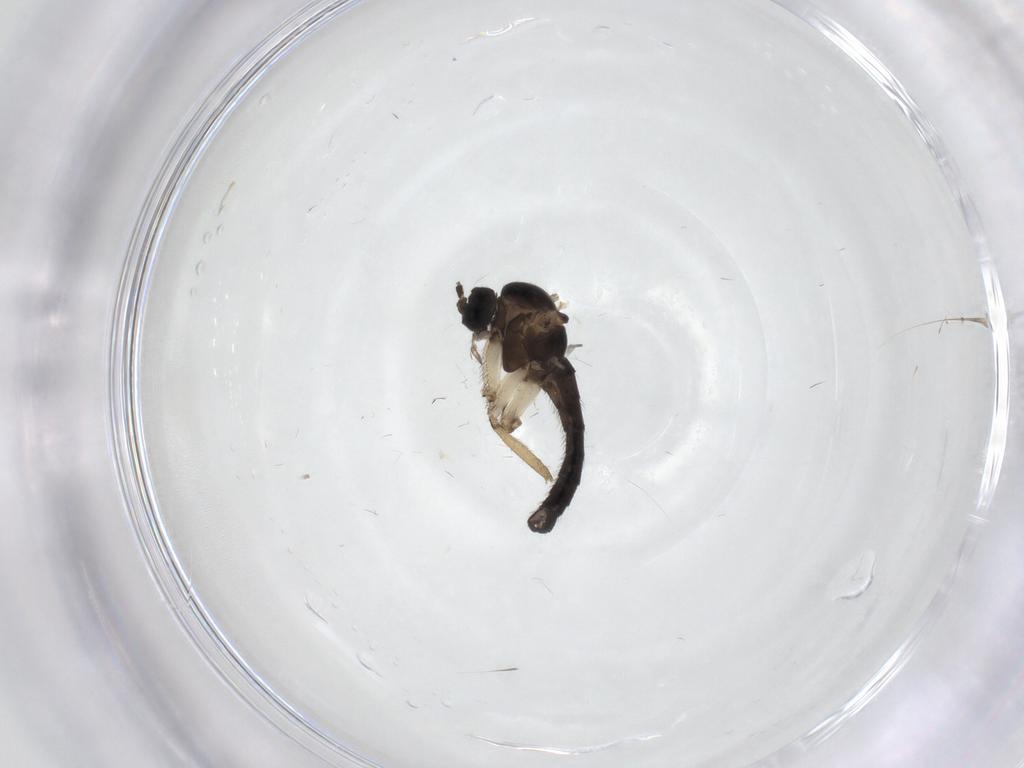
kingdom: Animalia
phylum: Arthropoda
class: Insecta
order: Diptera
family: Sciaridae
